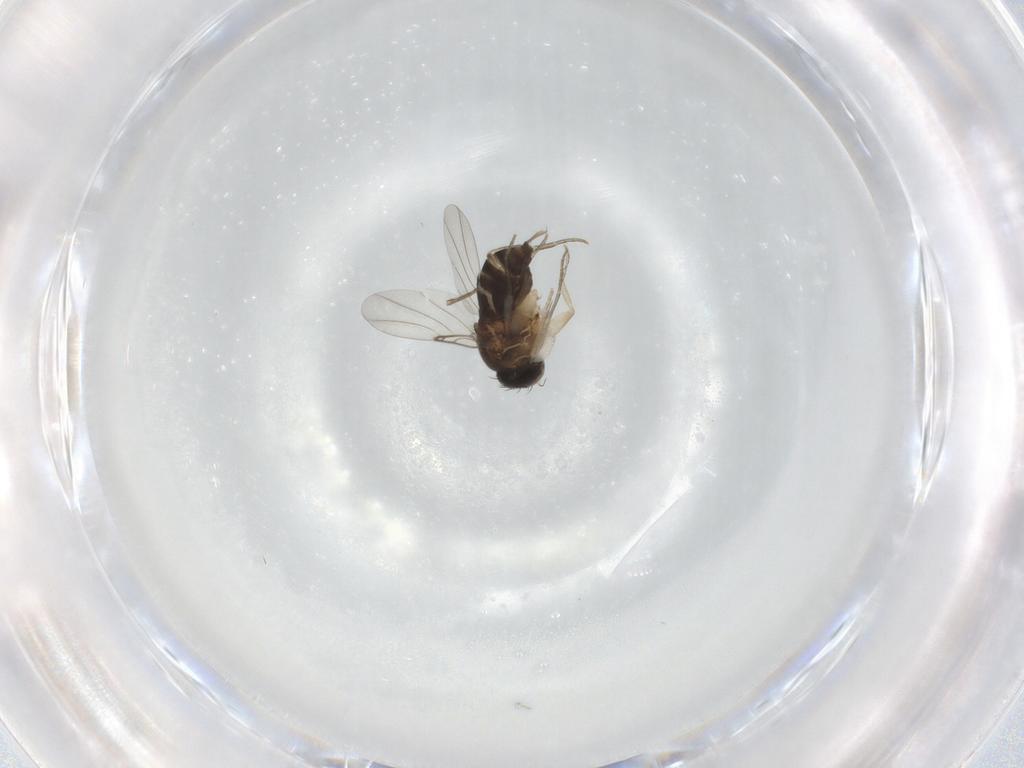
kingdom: Animalia
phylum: Arthropoda
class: Insecta
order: Diptera
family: Phoridae
